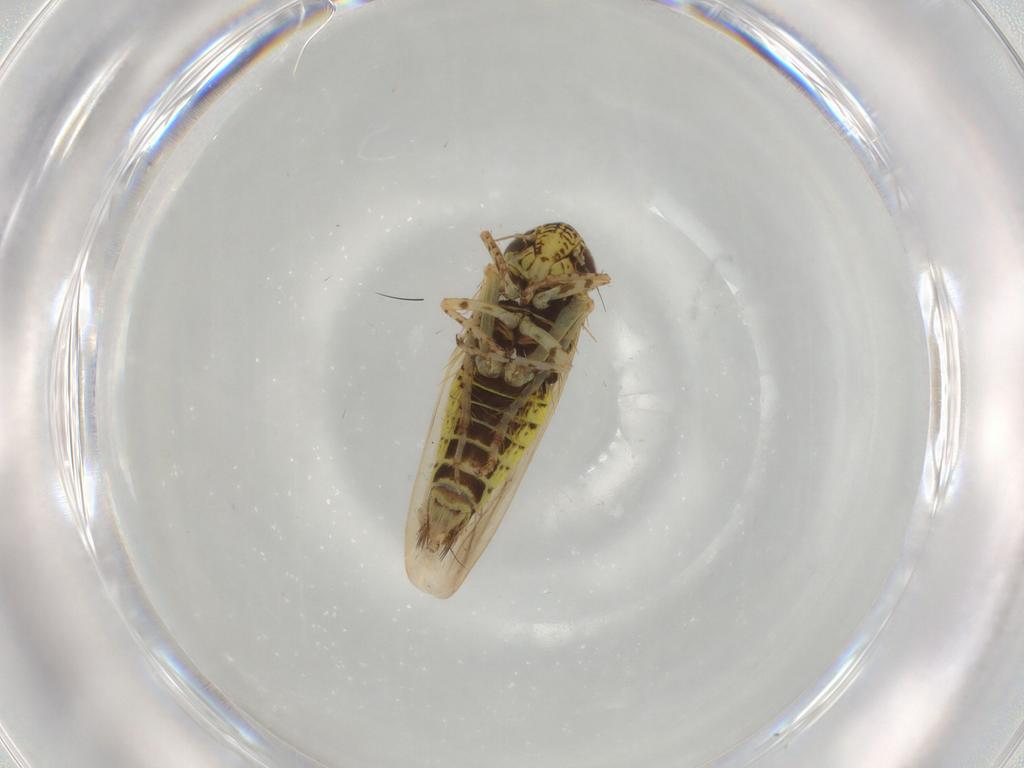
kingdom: Animalia
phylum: Arthropoda
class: Insecta
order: Hemiptera
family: Cicadellidae
